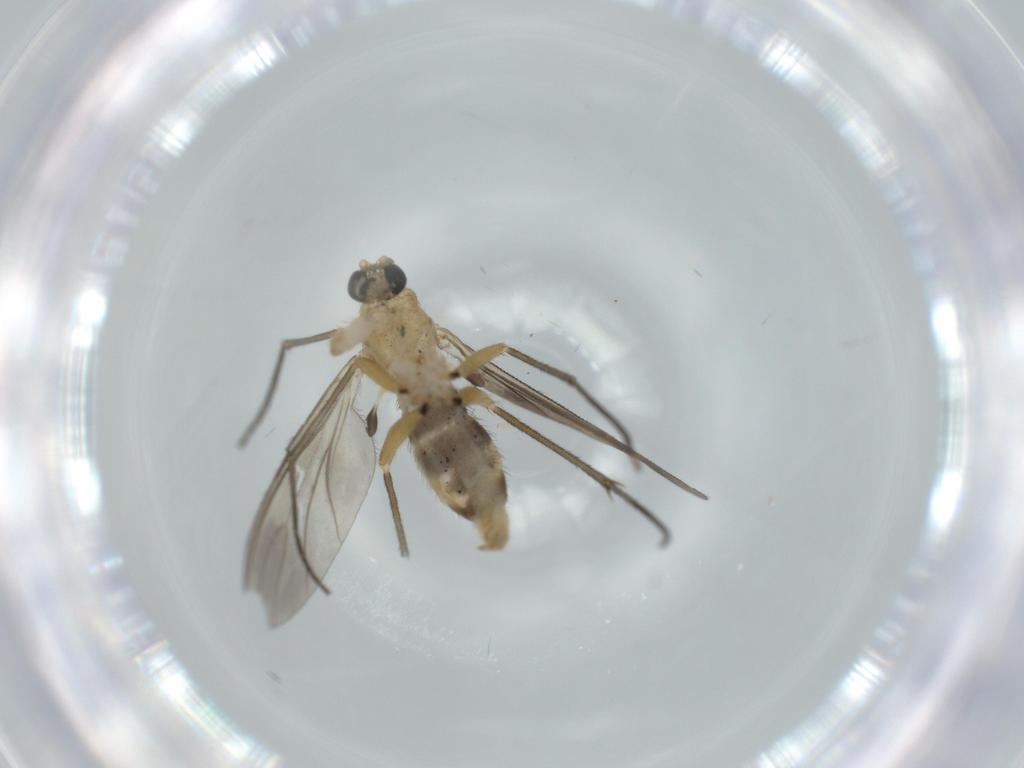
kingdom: Animalia
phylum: Arthropoda
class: Insecta
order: Diptera
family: Sciaridae
